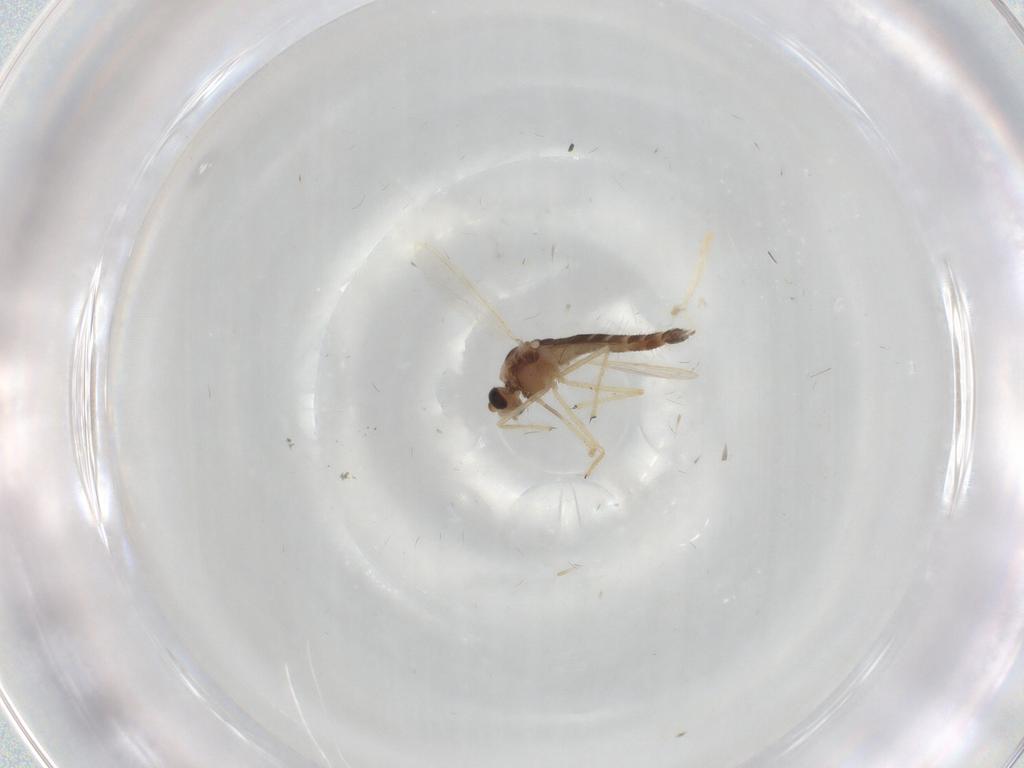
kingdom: Animalia
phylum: Arthropoda
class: Insecta
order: Diptera
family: Chironomidae
